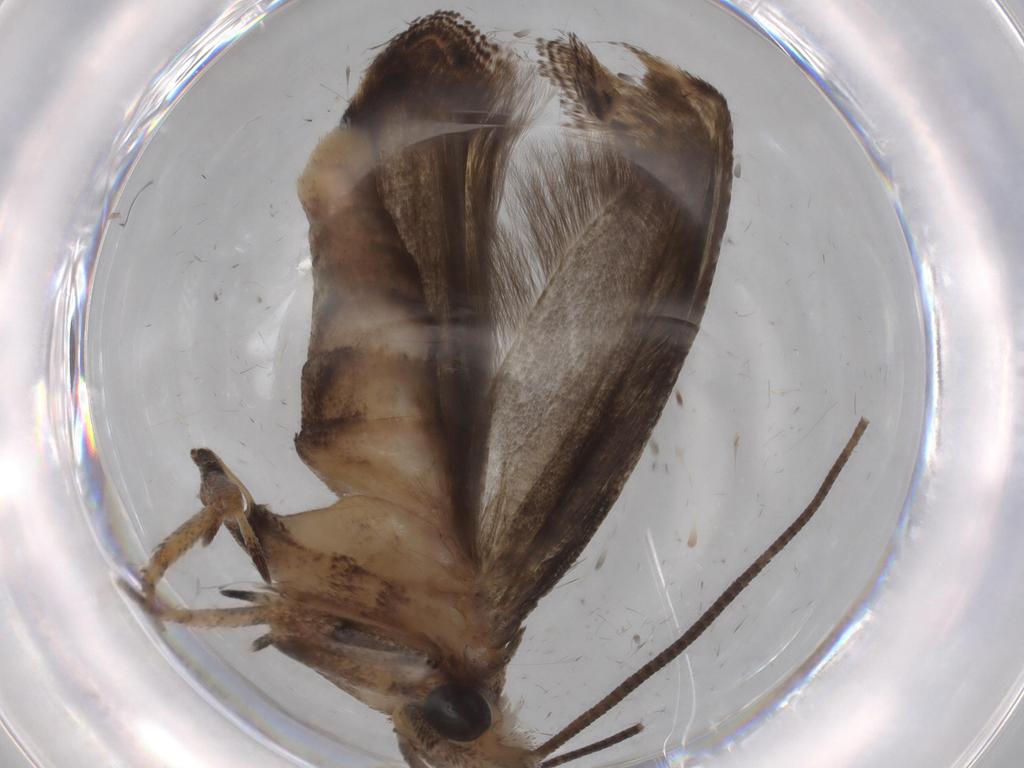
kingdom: Animalia
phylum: Arthropoda
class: Insecta
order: Lepidoptera
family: Yponomeutidae
